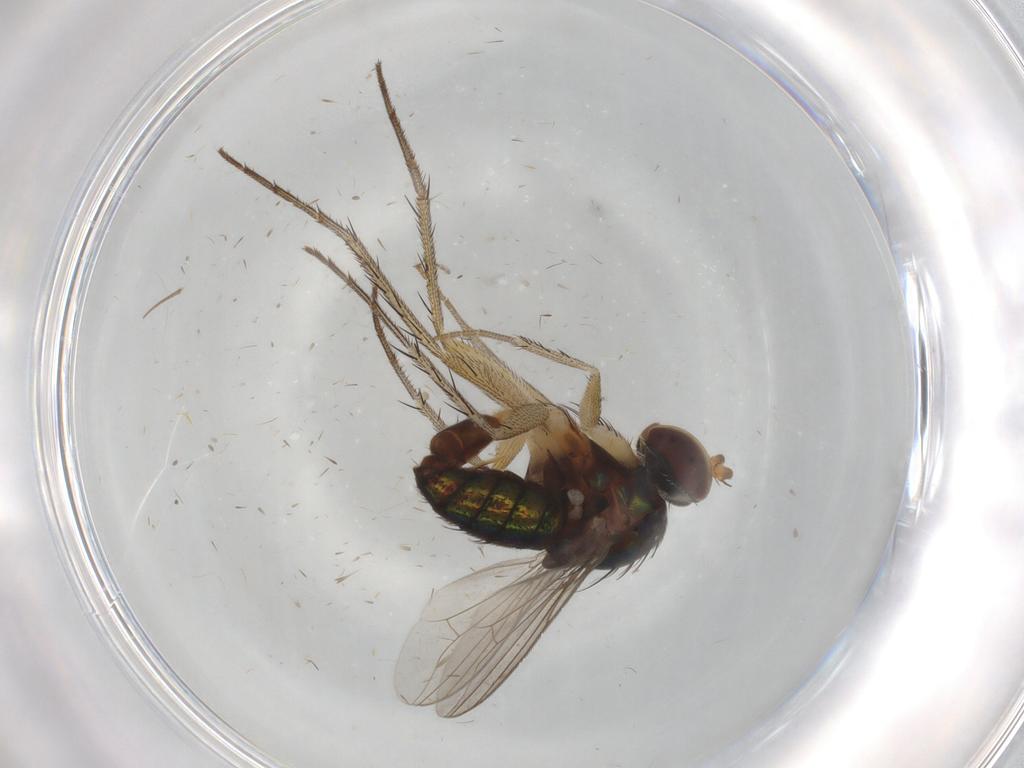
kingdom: Animalia
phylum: Arthropoda
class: Insecta
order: Diptera
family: Dolichopodidae
